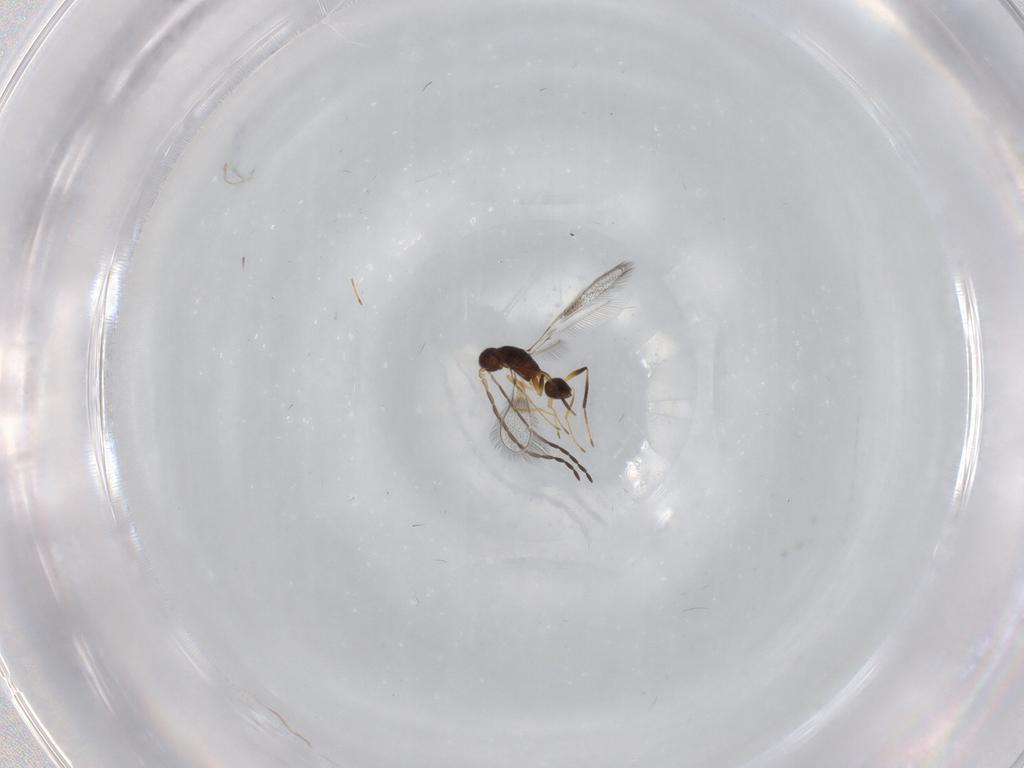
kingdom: Animalia
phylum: Arthropoda
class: Insecta
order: Hymenoptera
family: Mymaridae
